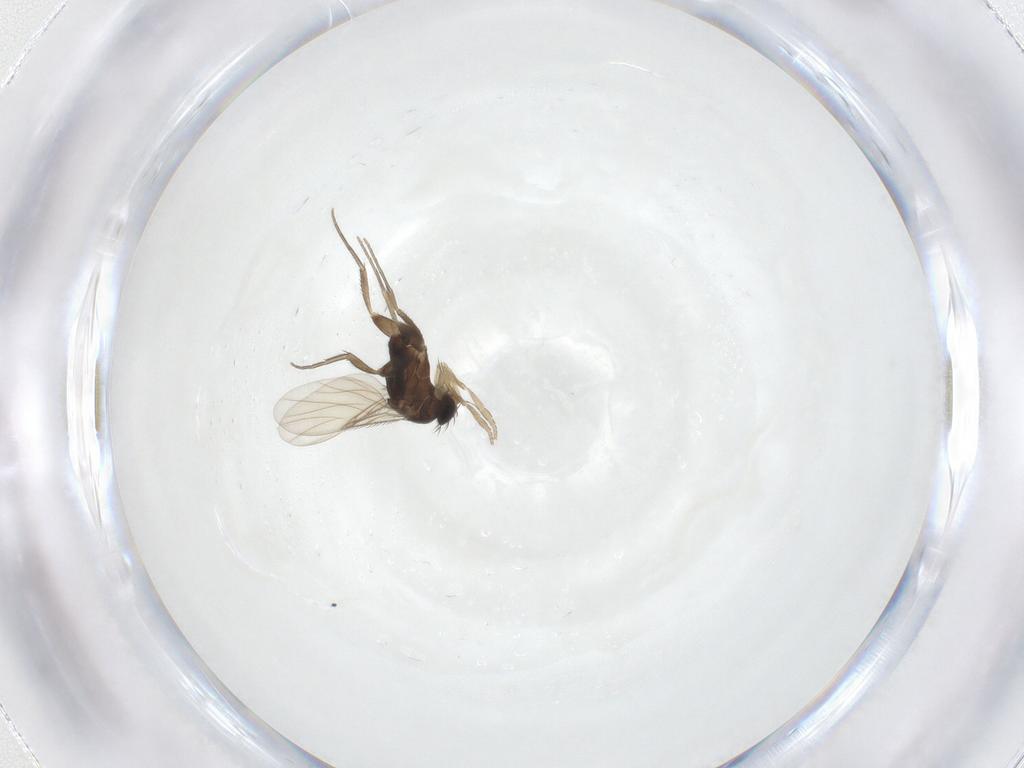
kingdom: Animalia
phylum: Arthropoda
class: Insecta
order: Diptera
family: Phoridae
